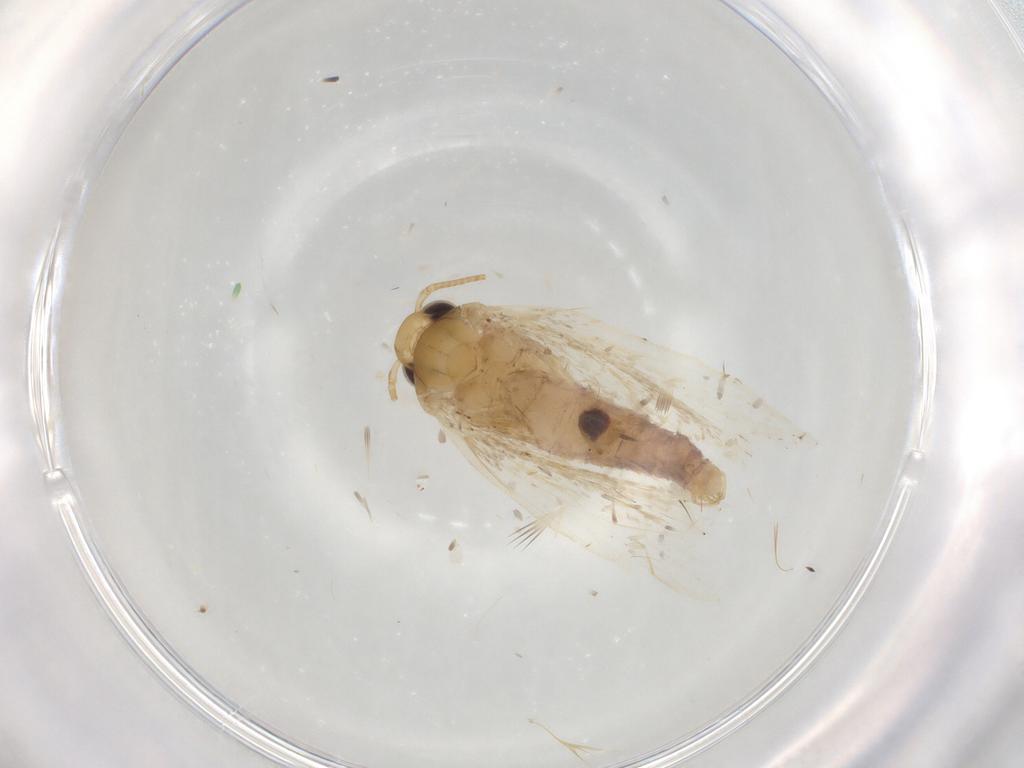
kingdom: Animalia
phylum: Arthropoda
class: Insecta
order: Lepidoptera
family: Depressariidae
